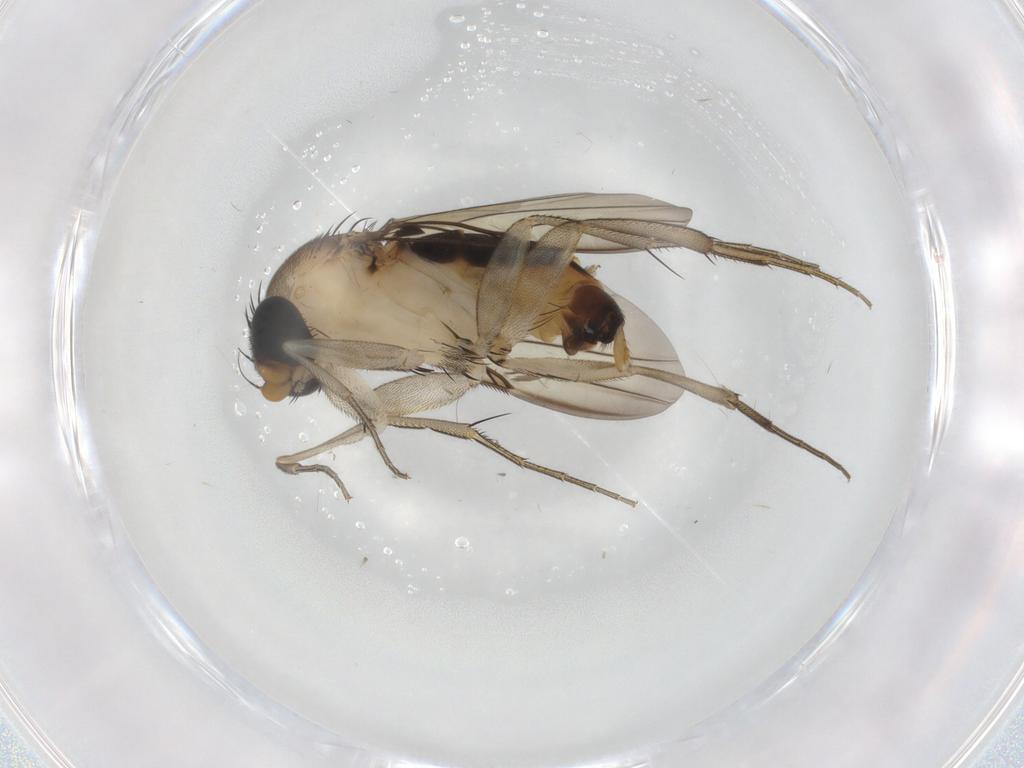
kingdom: Animalia
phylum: Arthropoda
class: Insecta
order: Diptera
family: Phoridae
